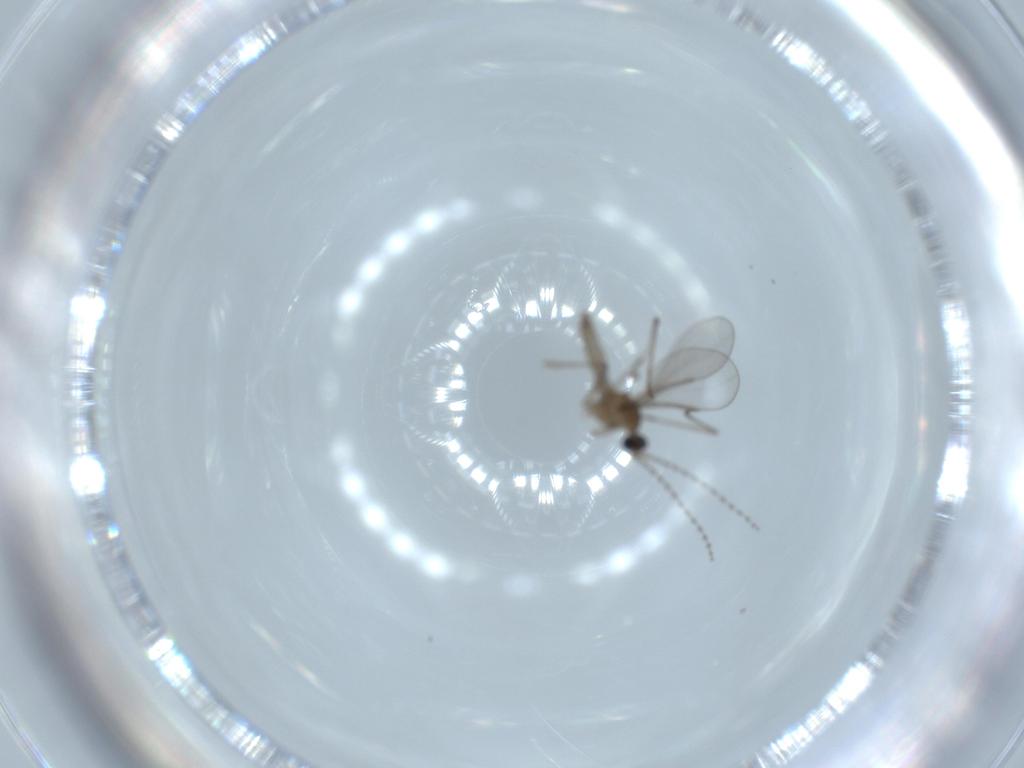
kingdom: Animalia
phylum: Arthropoda
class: Insecta
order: Diptera
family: Cecidomyiidae
